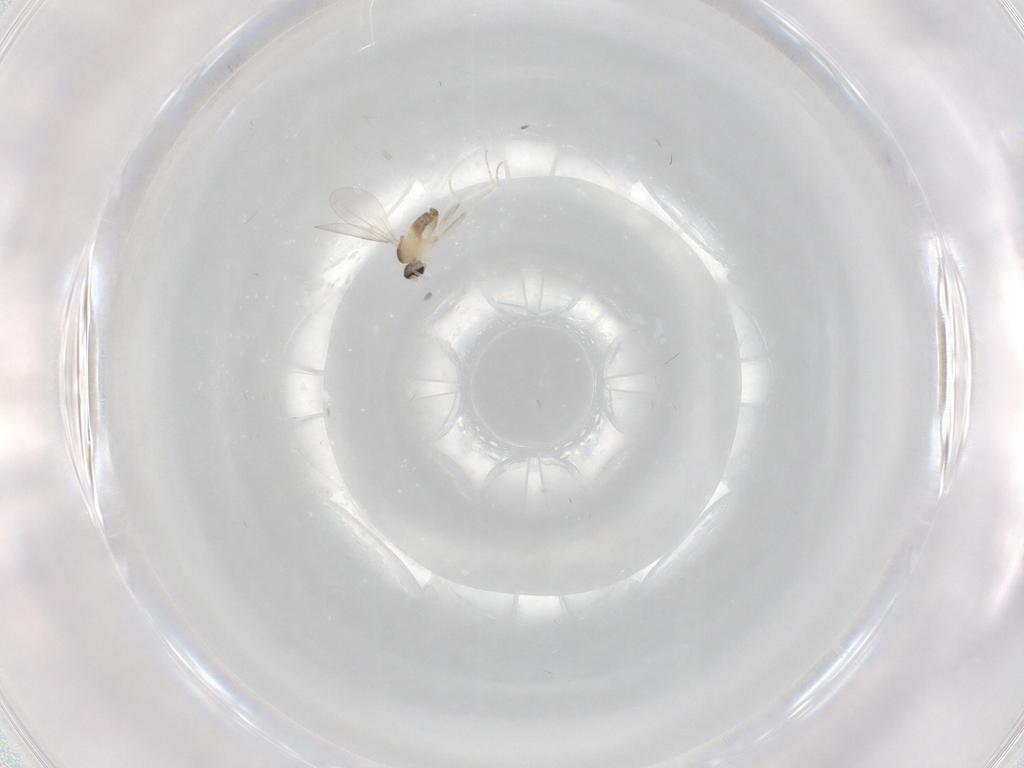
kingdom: Animalia
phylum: Arthropoda
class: Insecta
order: Diptera
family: Cecidomyiidae
